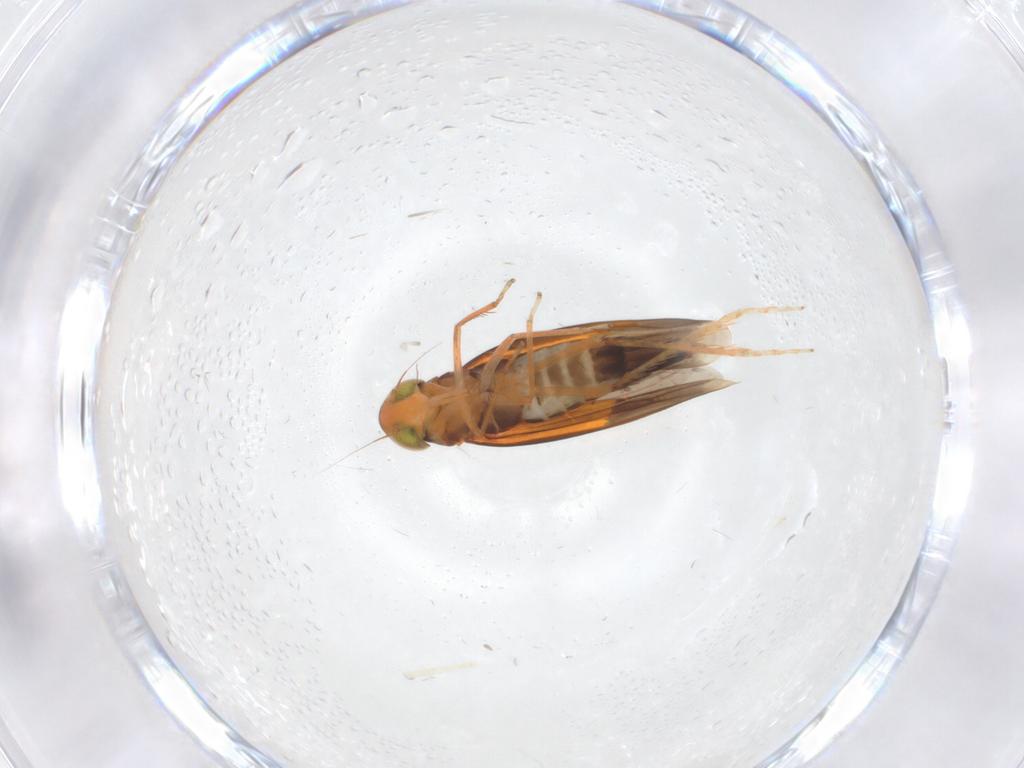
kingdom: Animalia
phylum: Arthropoda
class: Insecta
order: Hemiptera
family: Cicadellidae
